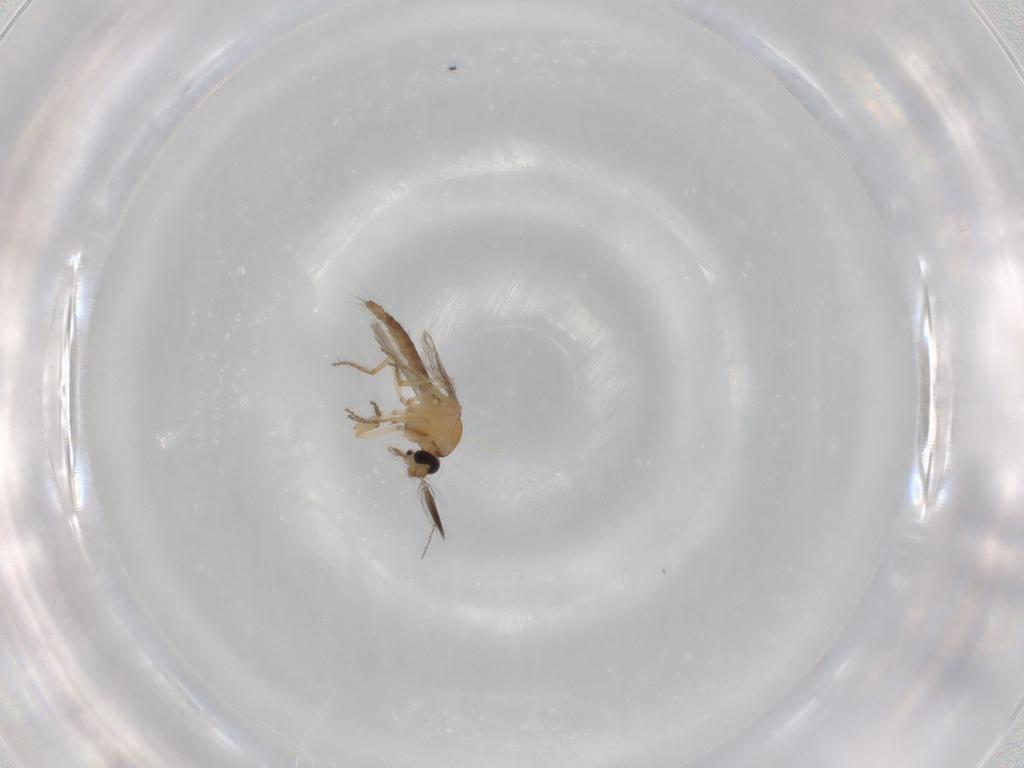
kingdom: Animalia
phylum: Arthropoda
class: Insecta
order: Diptera
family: Ceratopogonidae
